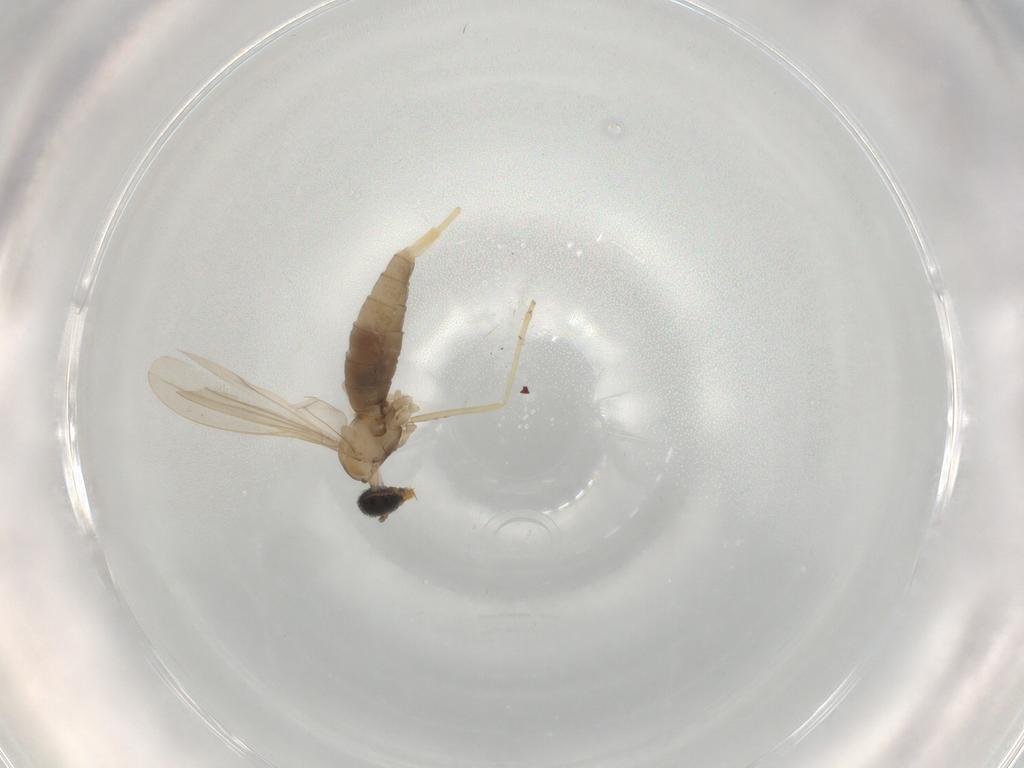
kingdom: Animalia
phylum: Arthropoda
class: Insecta
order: Diptera
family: Chironomidae
